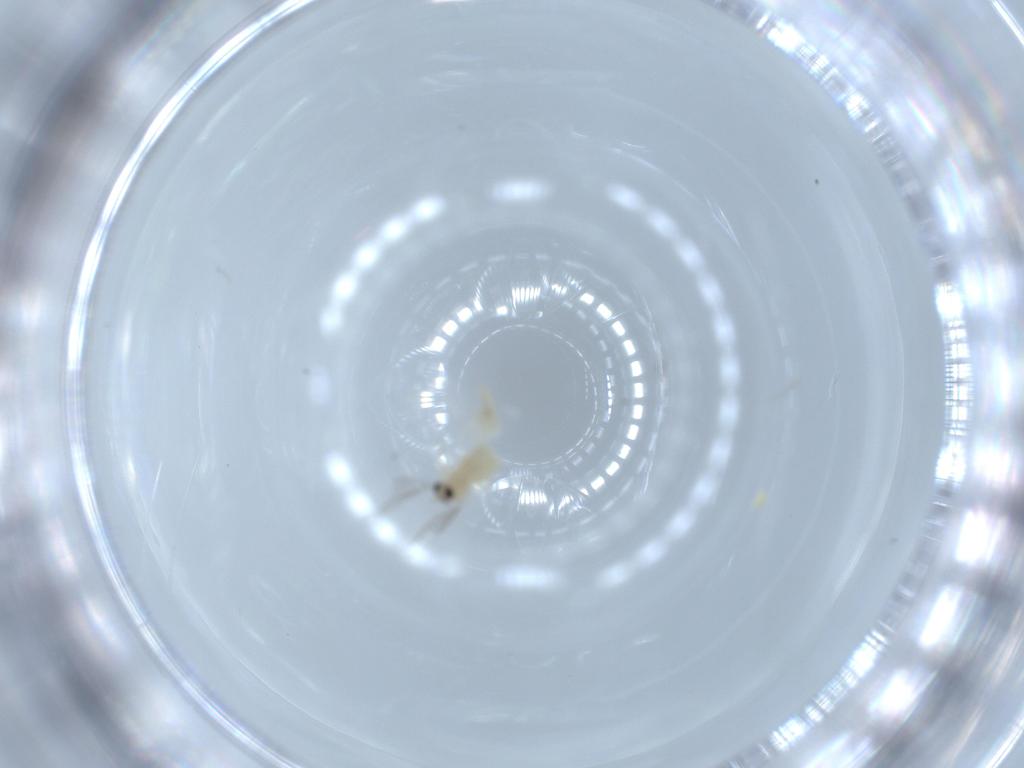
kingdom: Animalia
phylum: Arthropoda
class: Insecta
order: Diptera
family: Cecidomyiidae
